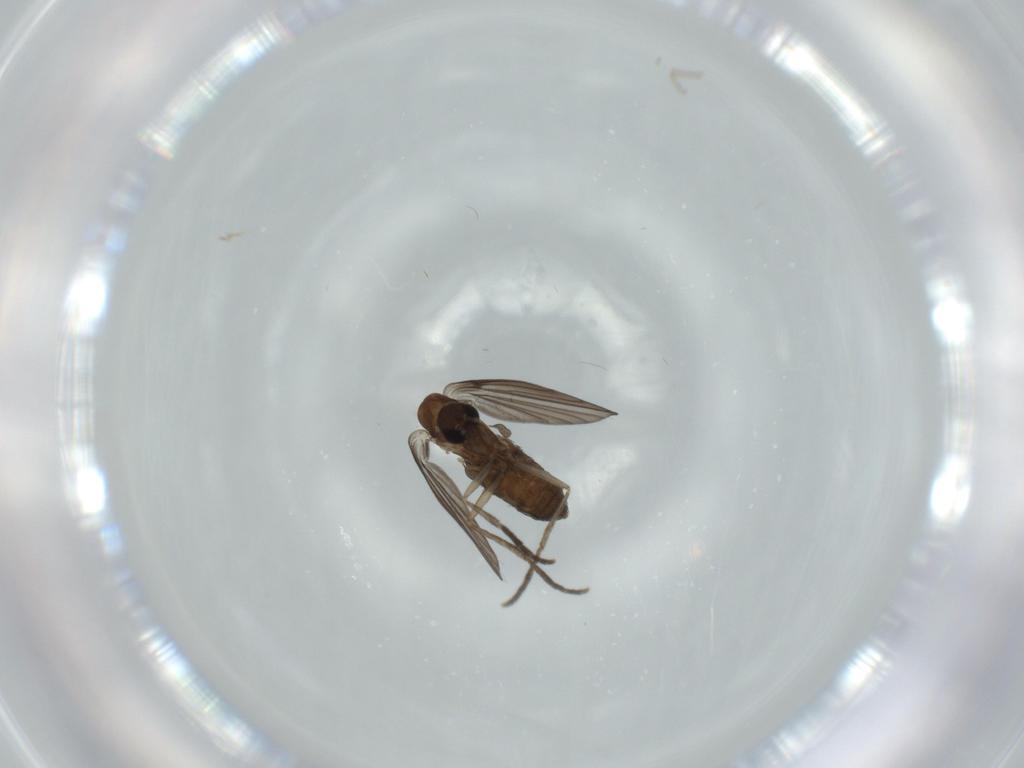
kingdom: Animalia
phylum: Arthropoda
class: Insecta
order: Diptera
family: Psychodidae
